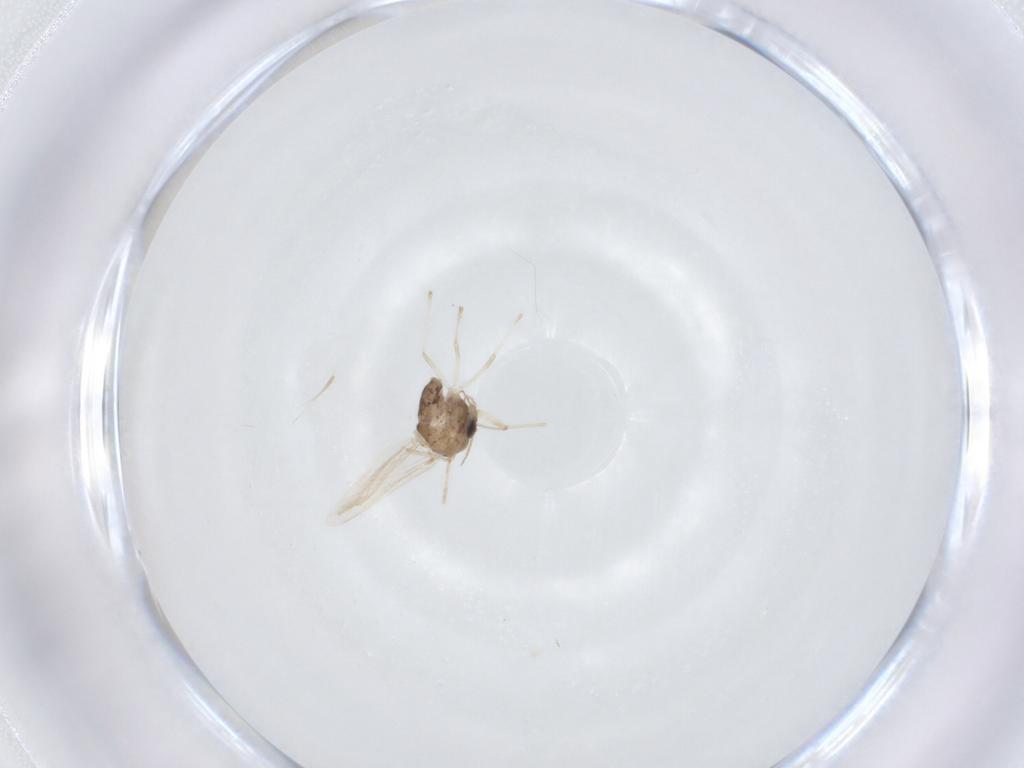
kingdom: Animalia
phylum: Arthropoda
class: Insecta
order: Diptera
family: Chironomidae
